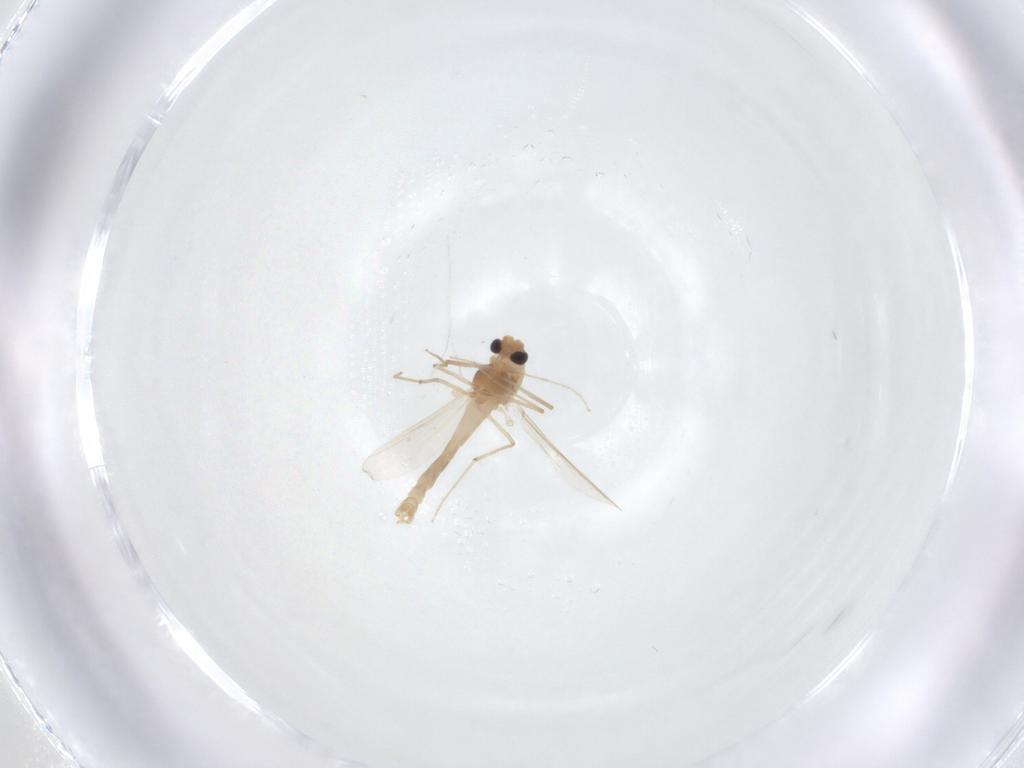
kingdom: Animalia
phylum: Arthropoda
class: Insecta
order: Diptera
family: Chironomidae
